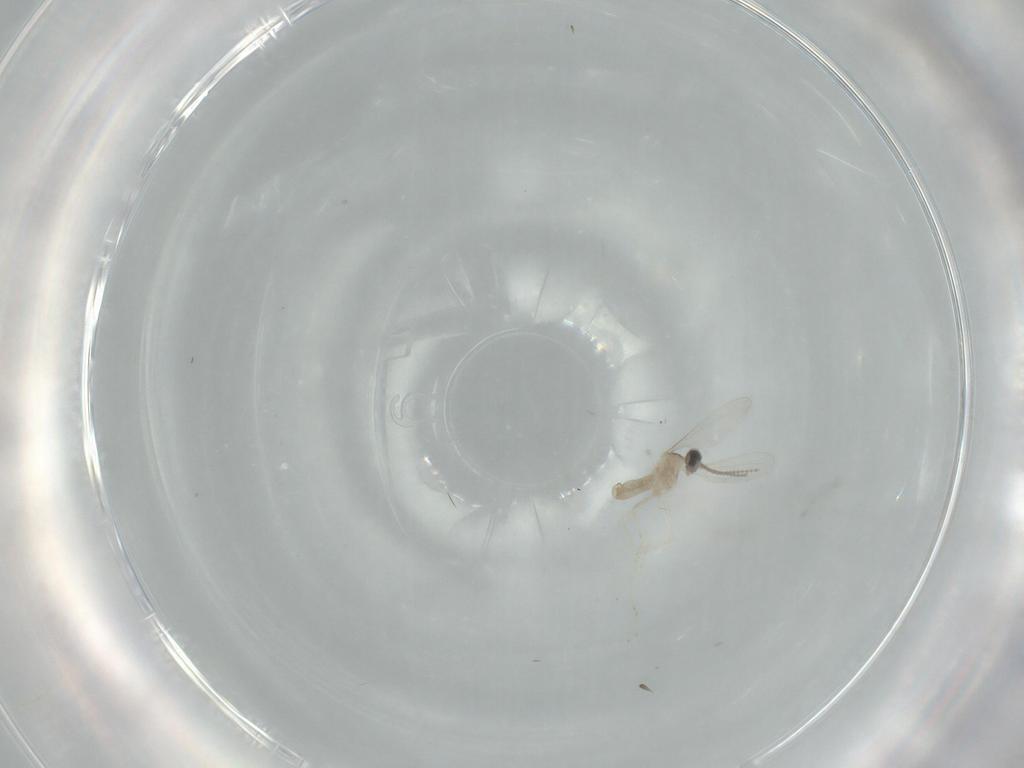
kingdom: Animalia
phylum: Arthropoda
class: Insecta
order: Diptera
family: Cecidomyiidae
